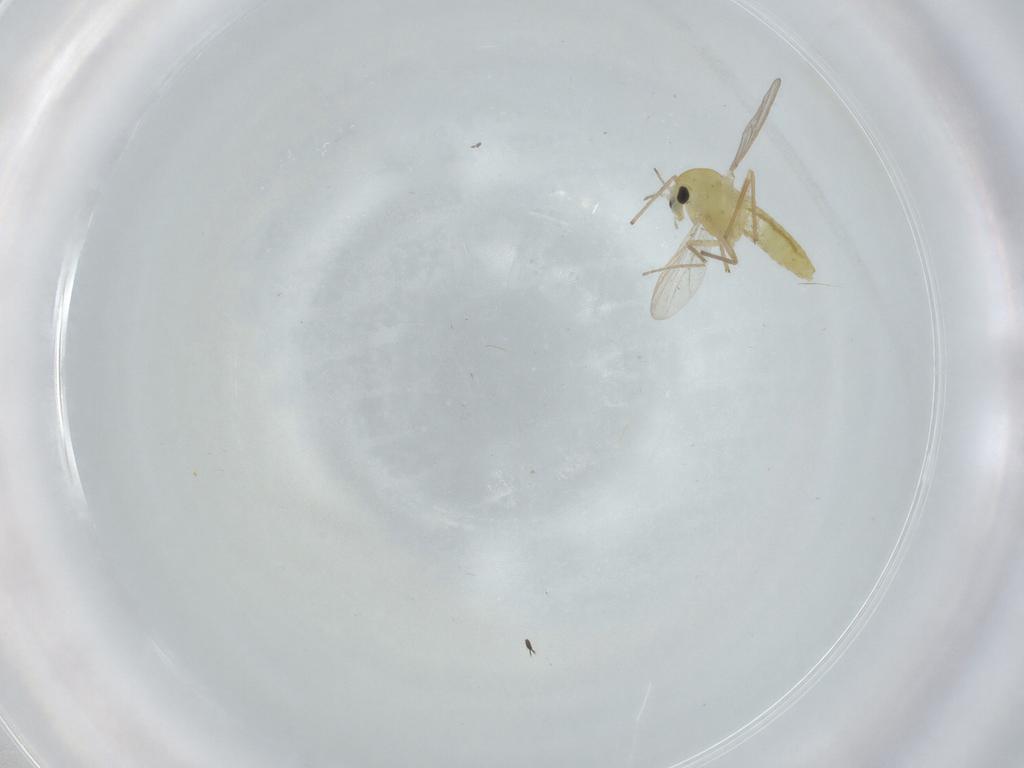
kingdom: Animalia
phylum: Arthropoda
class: Insecta
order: Diptera
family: Chironomidae
